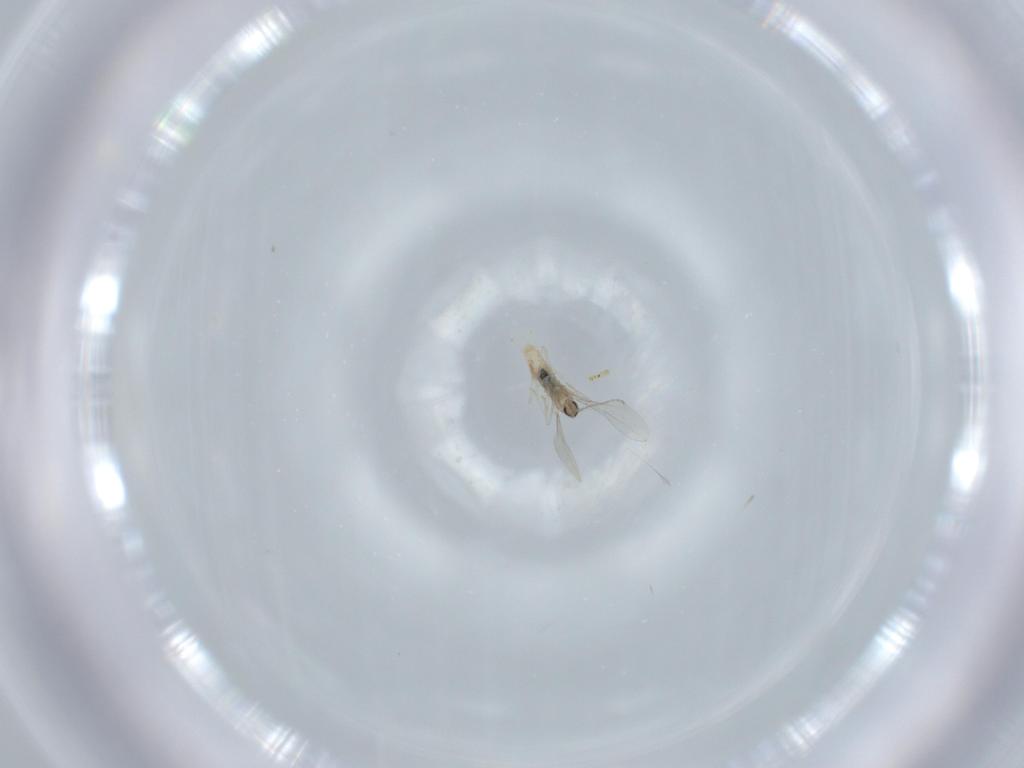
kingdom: Animalia
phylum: Arthropoda
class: Insecta
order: Diptera
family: Cecidomyiidae
